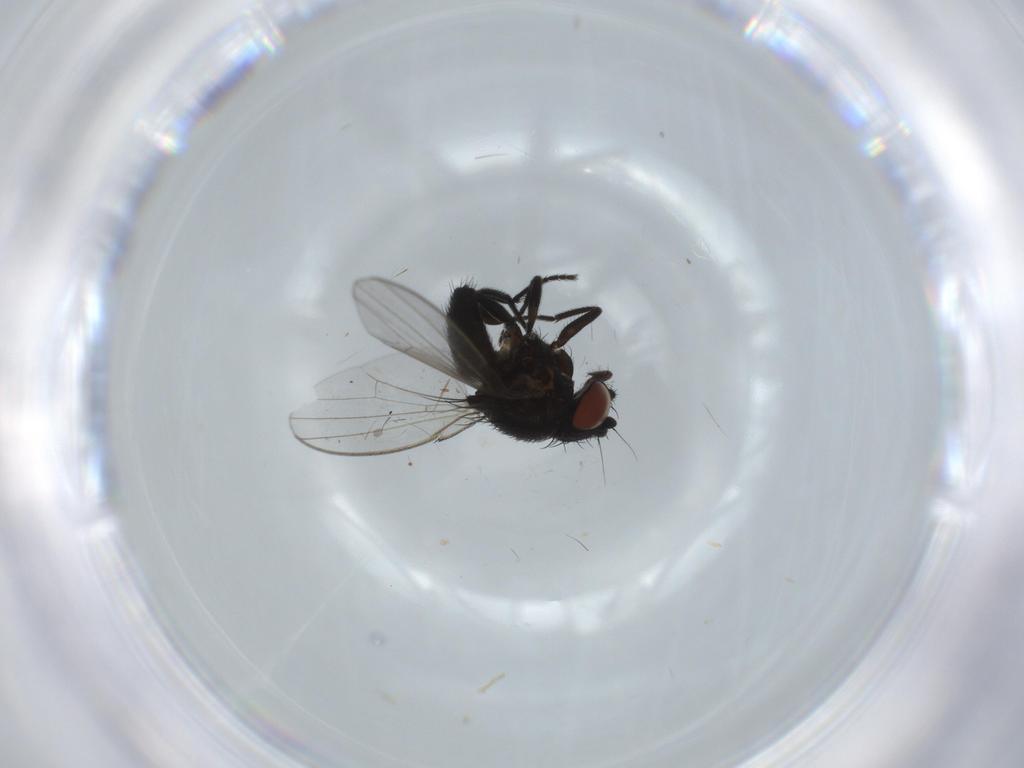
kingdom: Animalia
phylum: Arthropoda
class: Insecta
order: Diptera
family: Milichiidae
